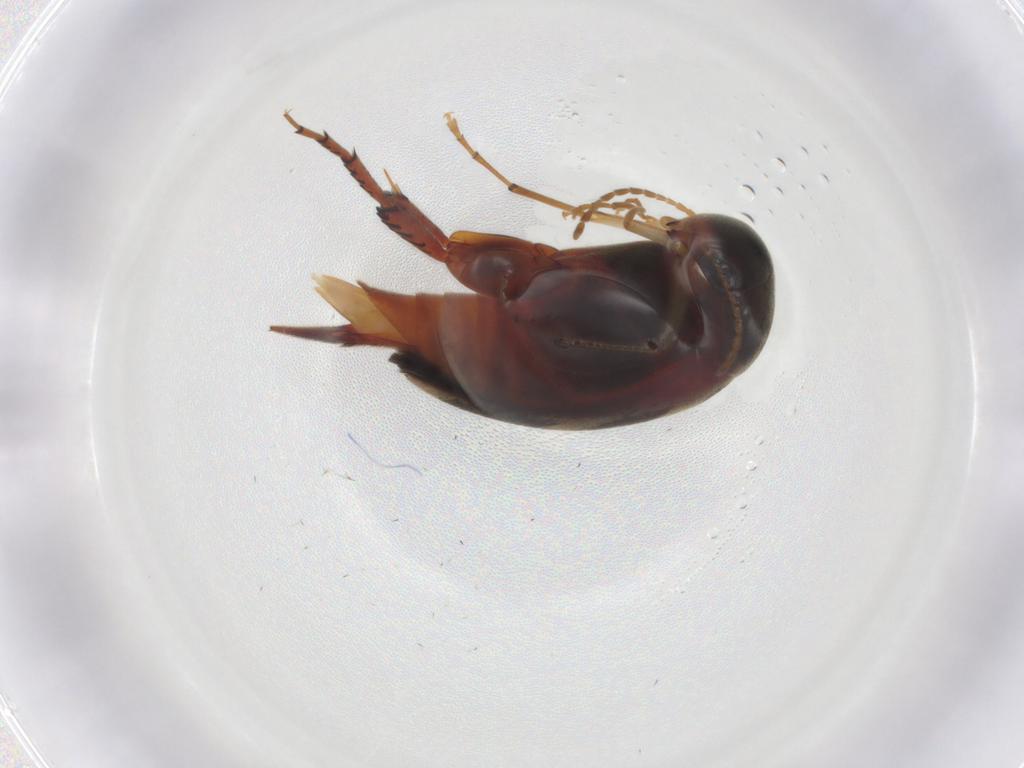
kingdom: Animalia
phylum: Arthropoda
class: Insecta
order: Coleoptera
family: Mordellidae
